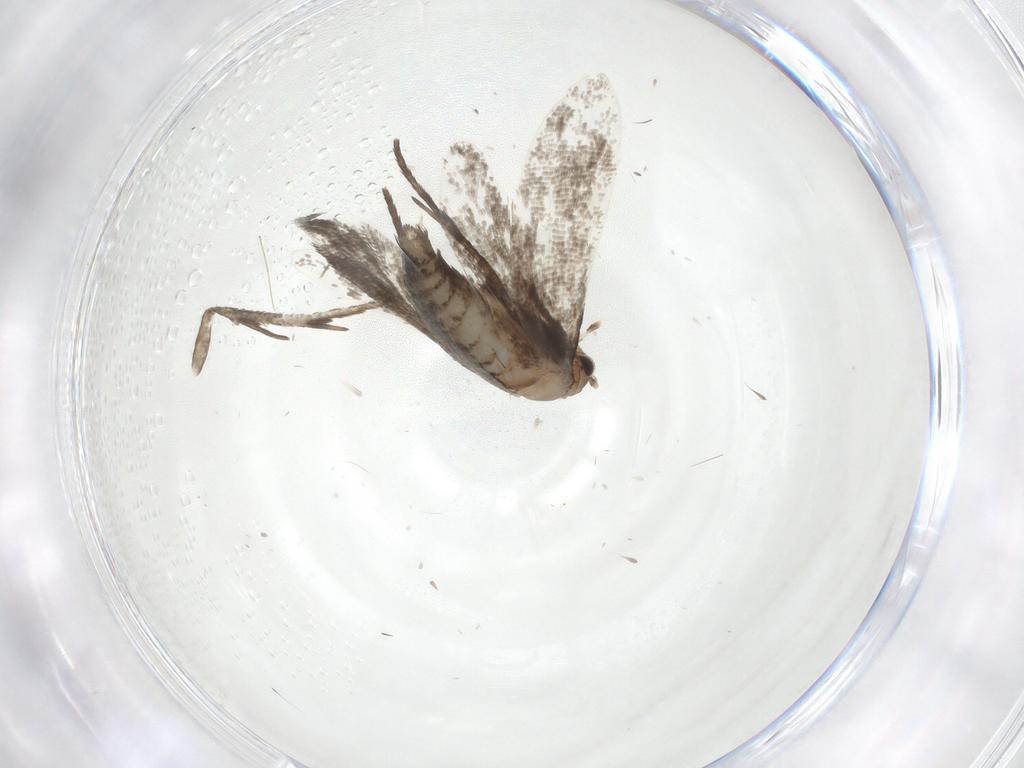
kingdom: Animalia
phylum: Arthropoda
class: Insecta
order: Lepidoptera
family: Crambidae
